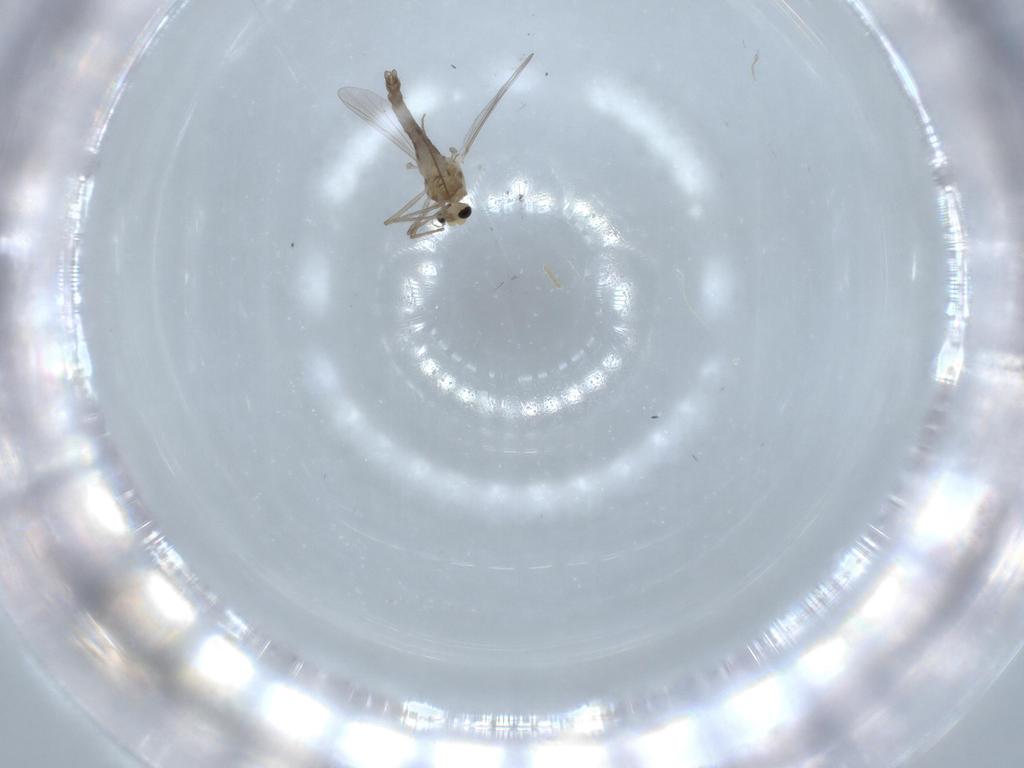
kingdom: Animalia
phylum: Arthropoda
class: Insecta
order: Diptera
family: Chironomidae
